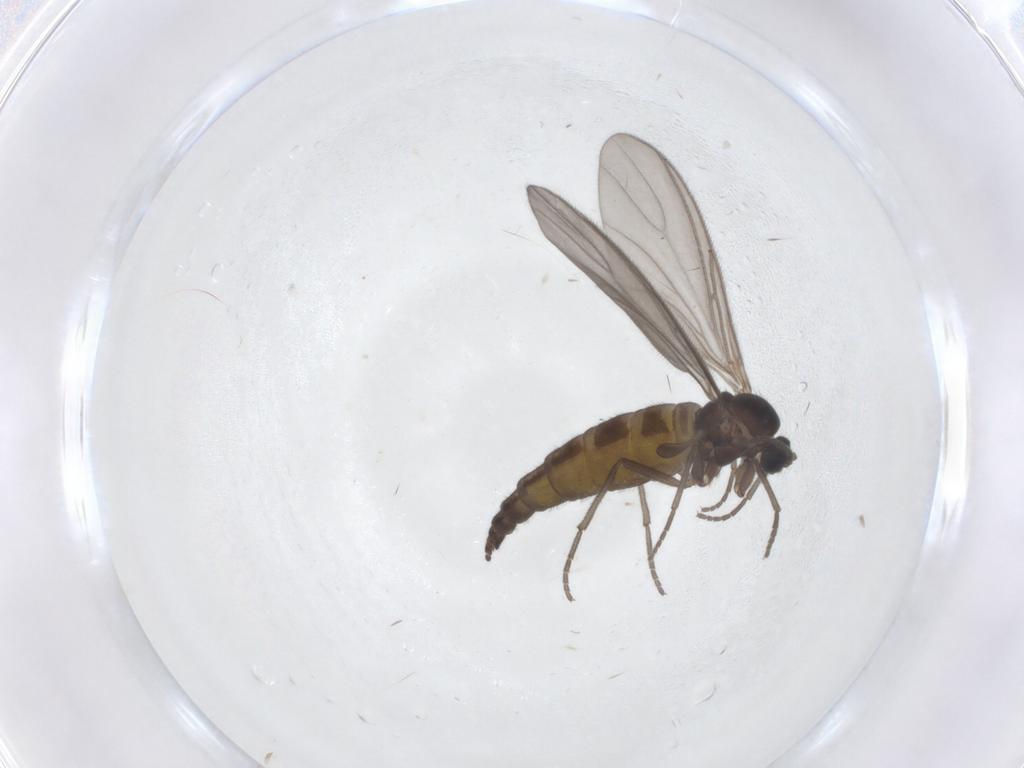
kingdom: Animalia
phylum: Arthropoda
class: Insecta
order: Diptera
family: Sciaridae
